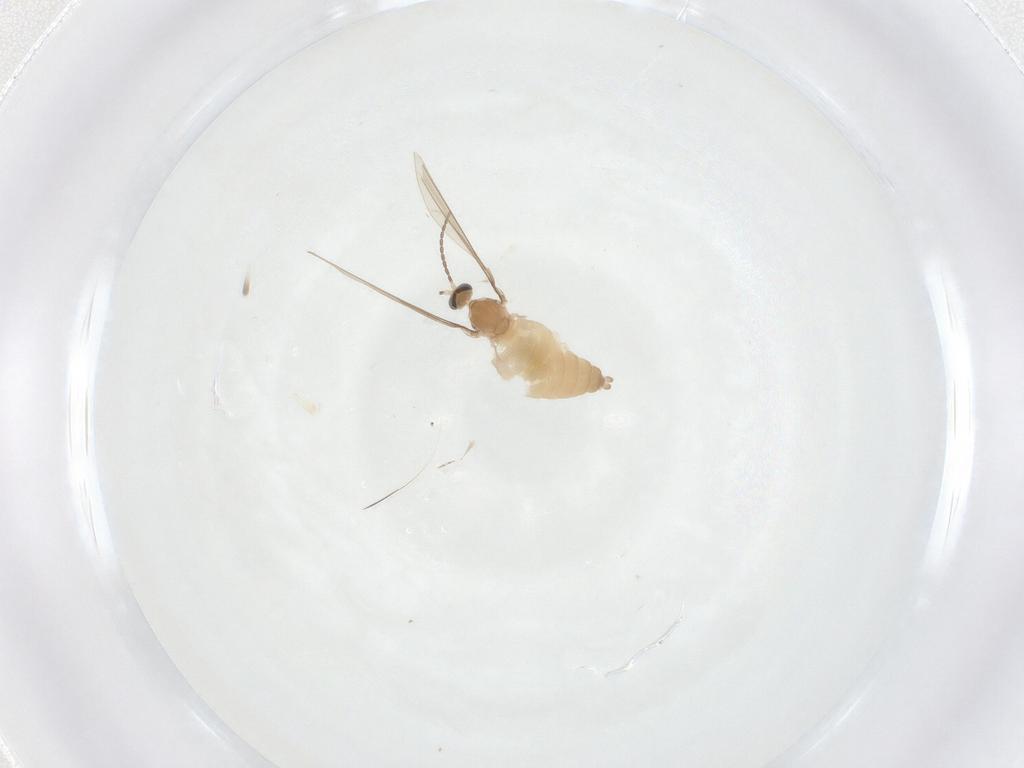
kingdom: Animalia
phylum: Arthropoda
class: Insecta
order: Diptera
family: Cecidomyiidae
